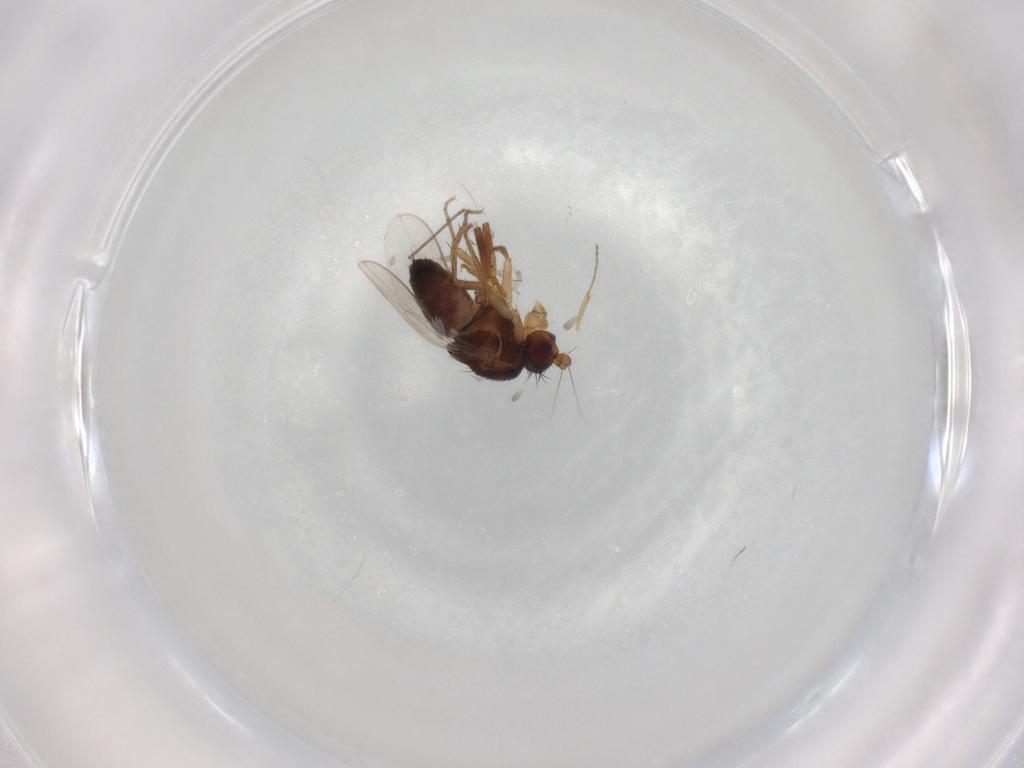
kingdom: Animalia
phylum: Arthropoda
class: Insecta
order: Diptera
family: Sphaeroceridae
